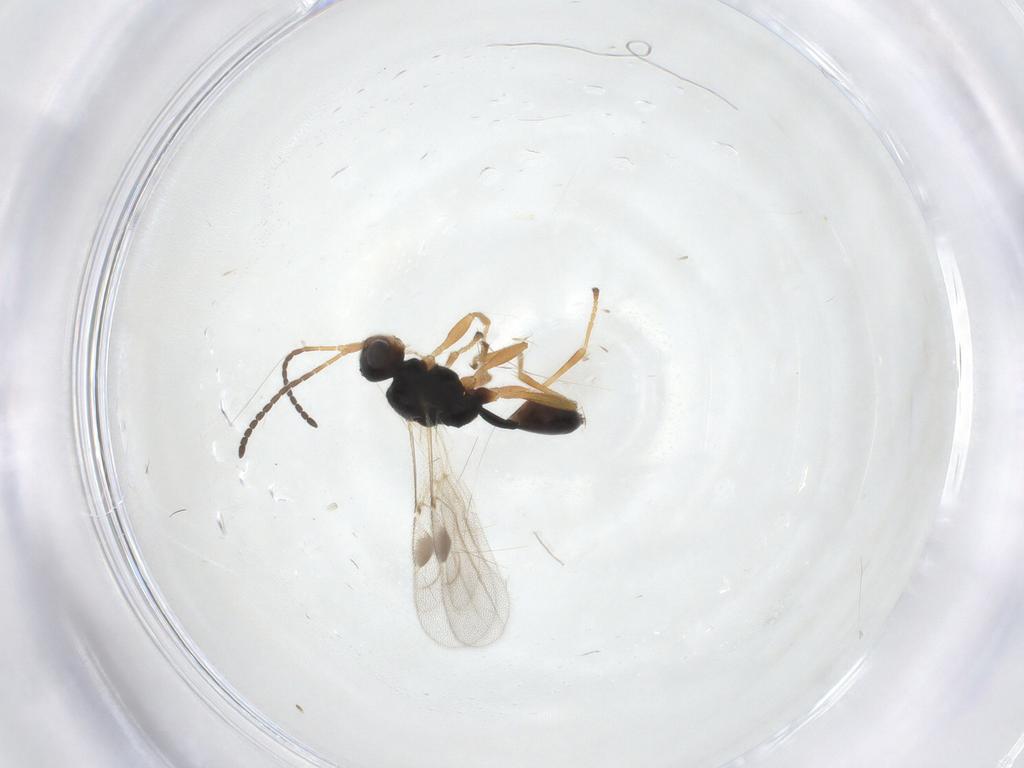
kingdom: Animalia
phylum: Arthropoda
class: Insecta
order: Hymenoptera
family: Braconidae
